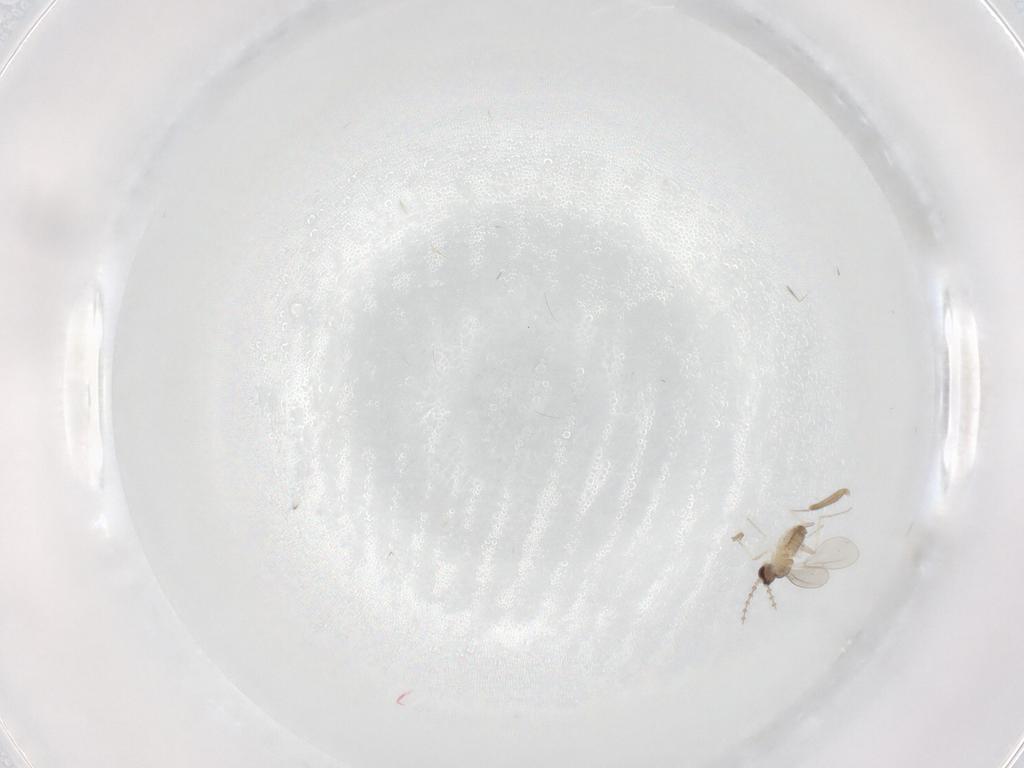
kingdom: Animalia
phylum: Arthropoda
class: Insecta
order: Diptera
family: Cecidomyiidae
